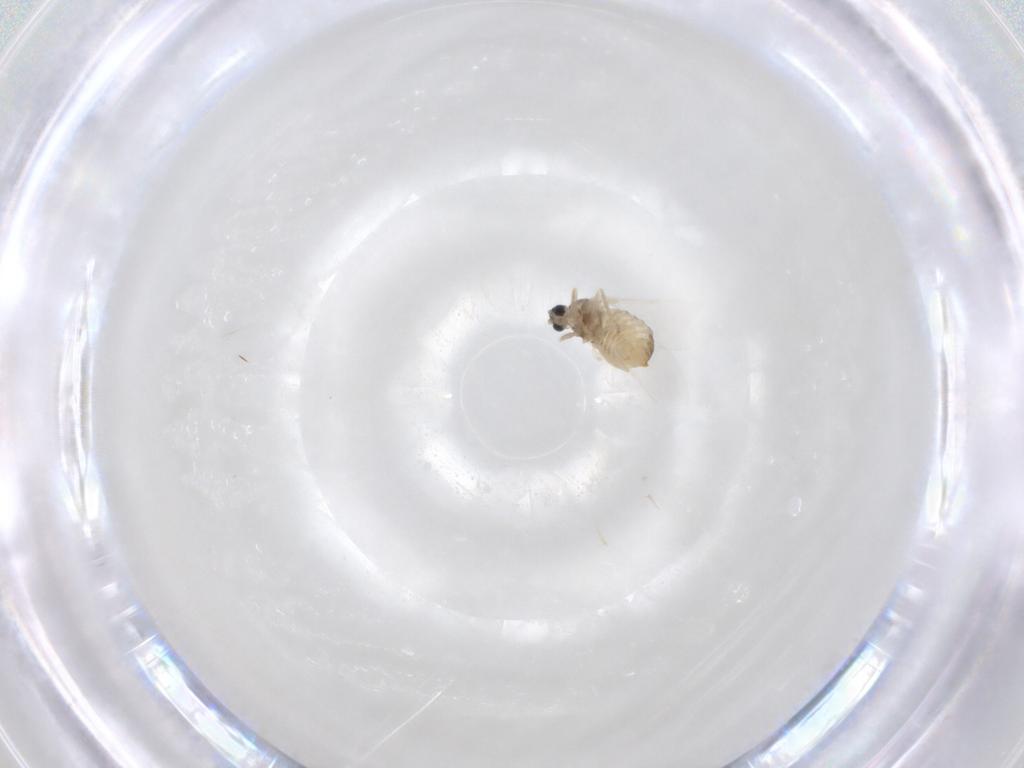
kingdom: Animalia
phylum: Arthropoda
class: Insecta
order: Diptera
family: Cecidomyiidae
